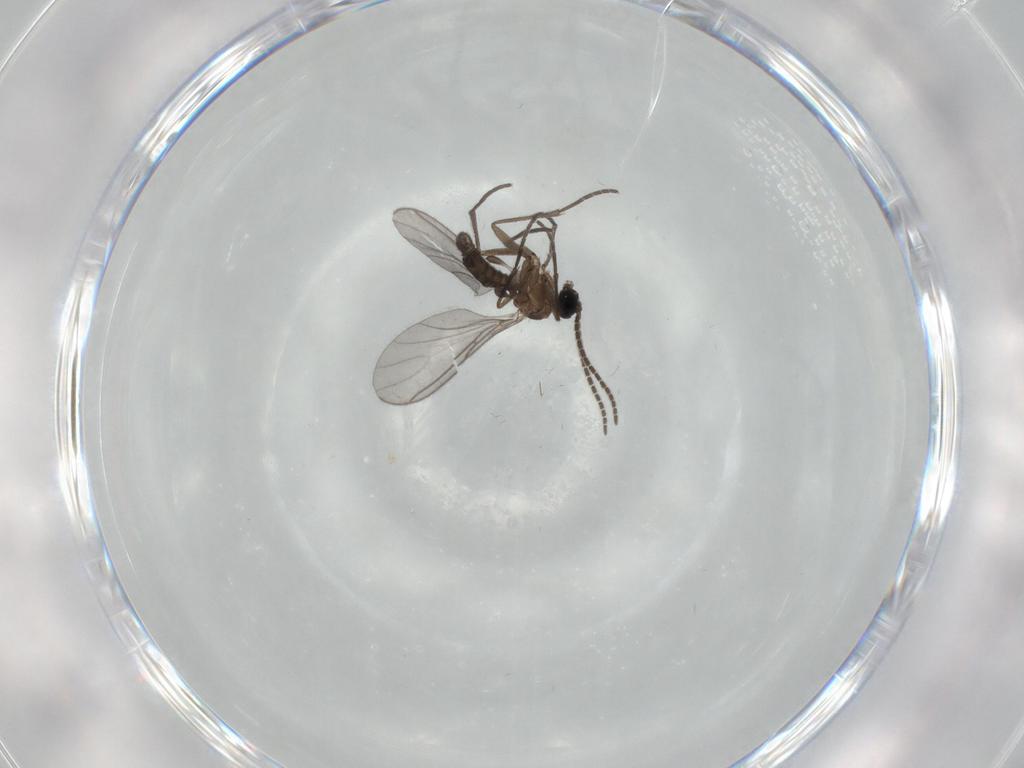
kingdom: Animalia
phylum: Arthropoda
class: Insecta
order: Diptera
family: Sciaridae
